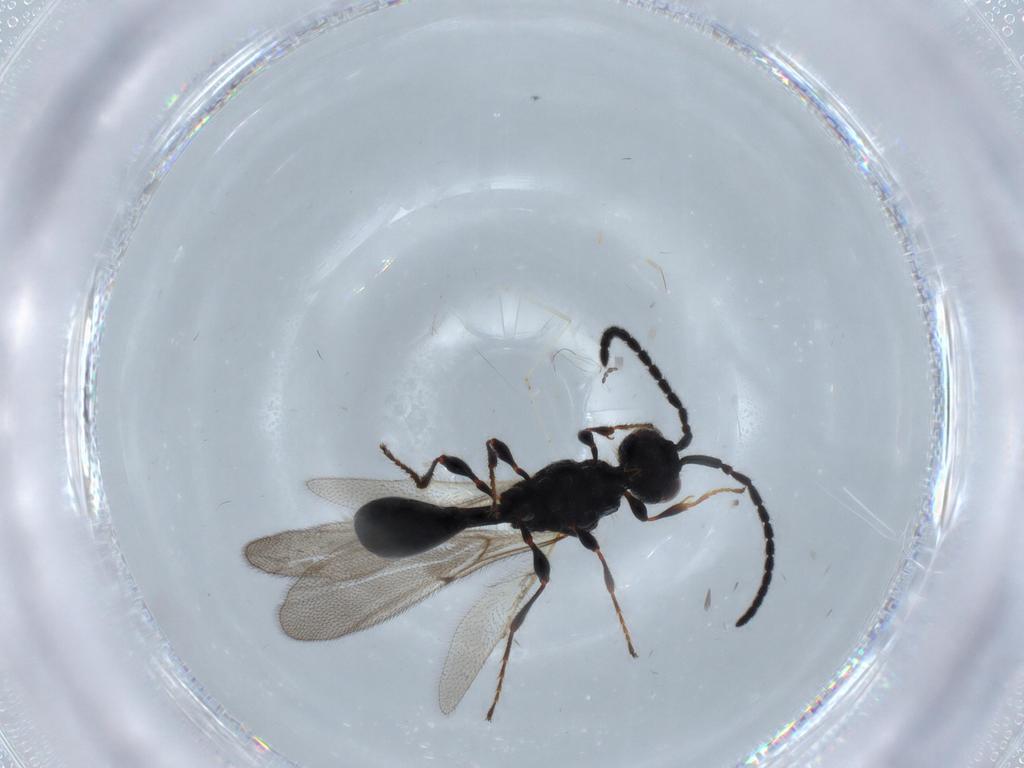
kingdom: Animalia
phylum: Arthropoda
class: Insecta
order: Hymenoptera
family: Diapriidae
